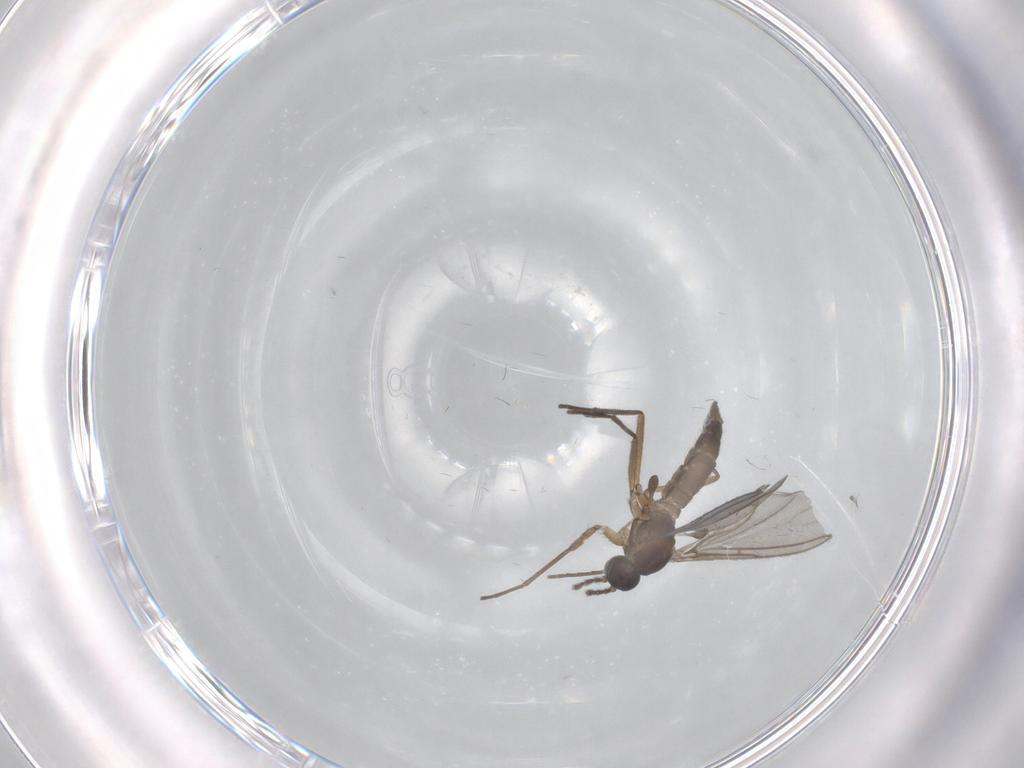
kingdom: Animalia
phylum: Arthropoda
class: Insecta
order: Diptera
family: Sciaridae
